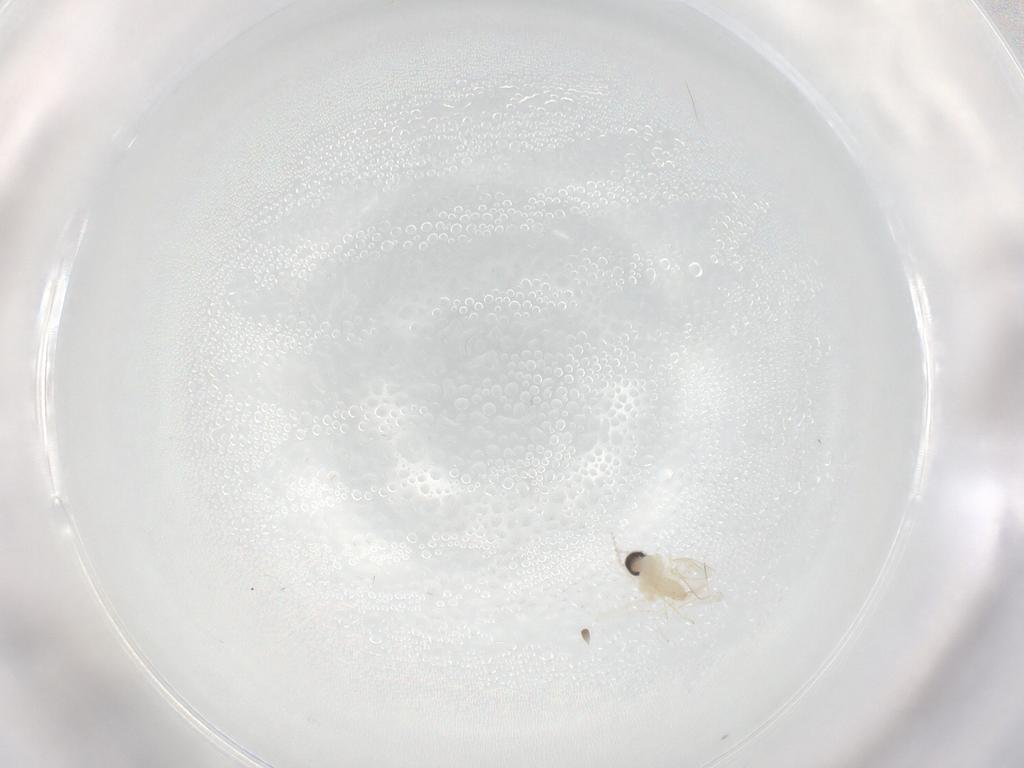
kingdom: Animalia
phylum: Arthropoda
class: Insecta
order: Diptera
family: Cecidomyiidae
